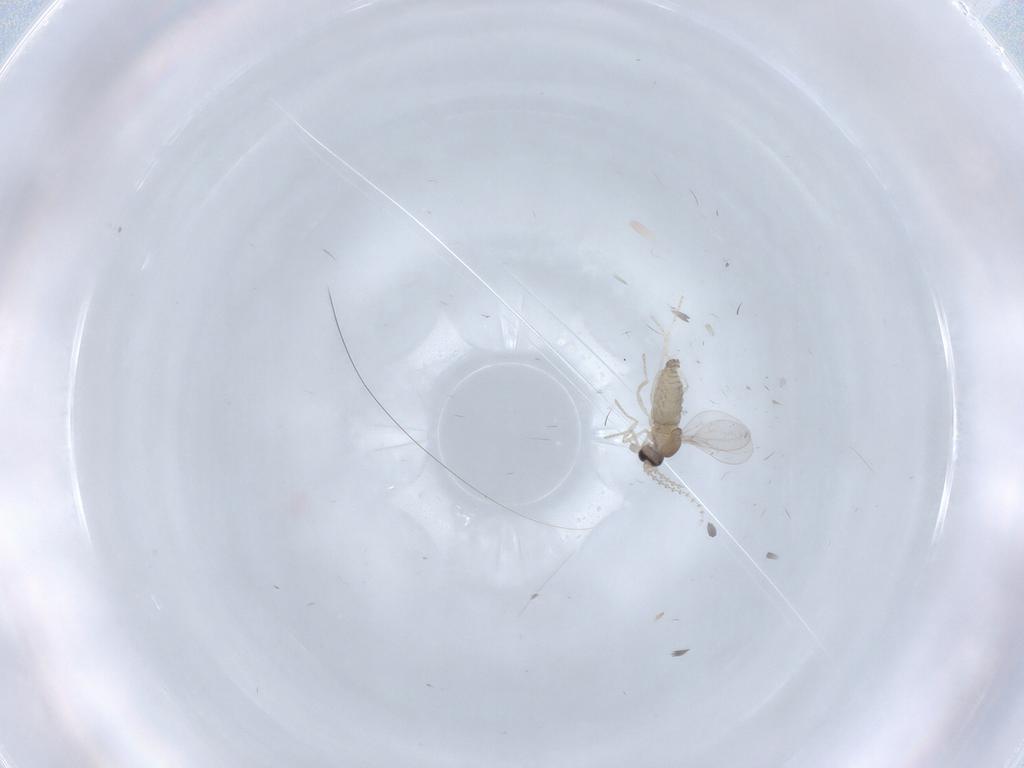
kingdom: Animalia
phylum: Arthropoda
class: Insecta
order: Diptera
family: Cecidomyiidae
